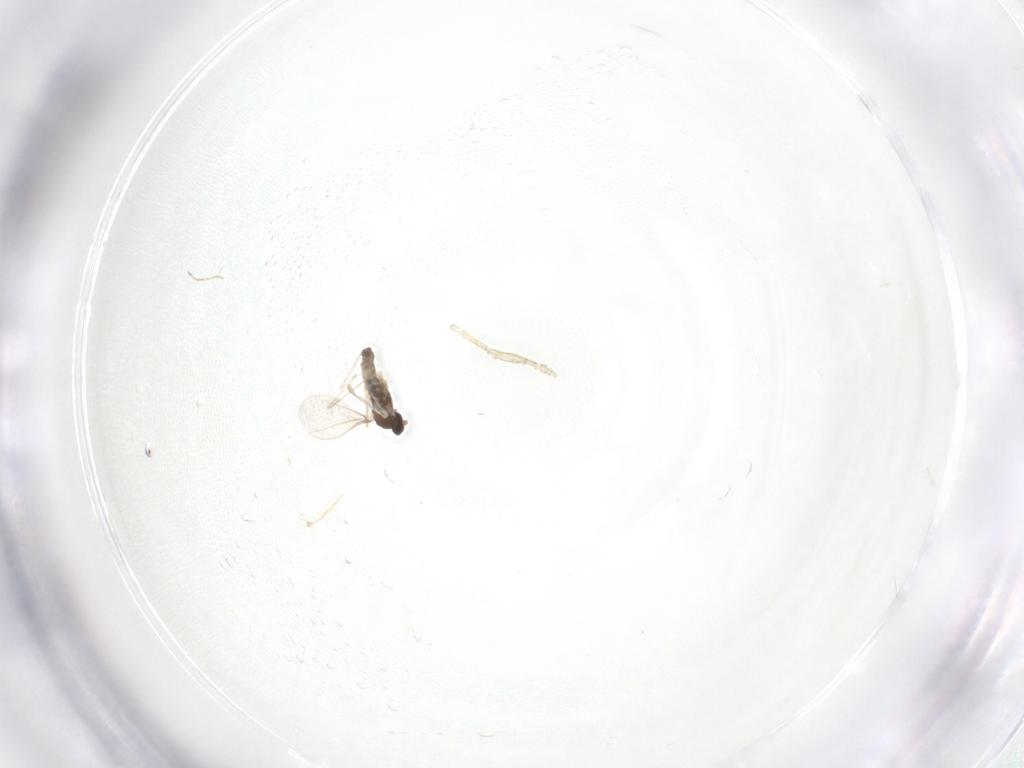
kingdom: Animalia
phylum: Arthropoda
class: Insecta
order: Diptera
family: Cecidomyiidae
